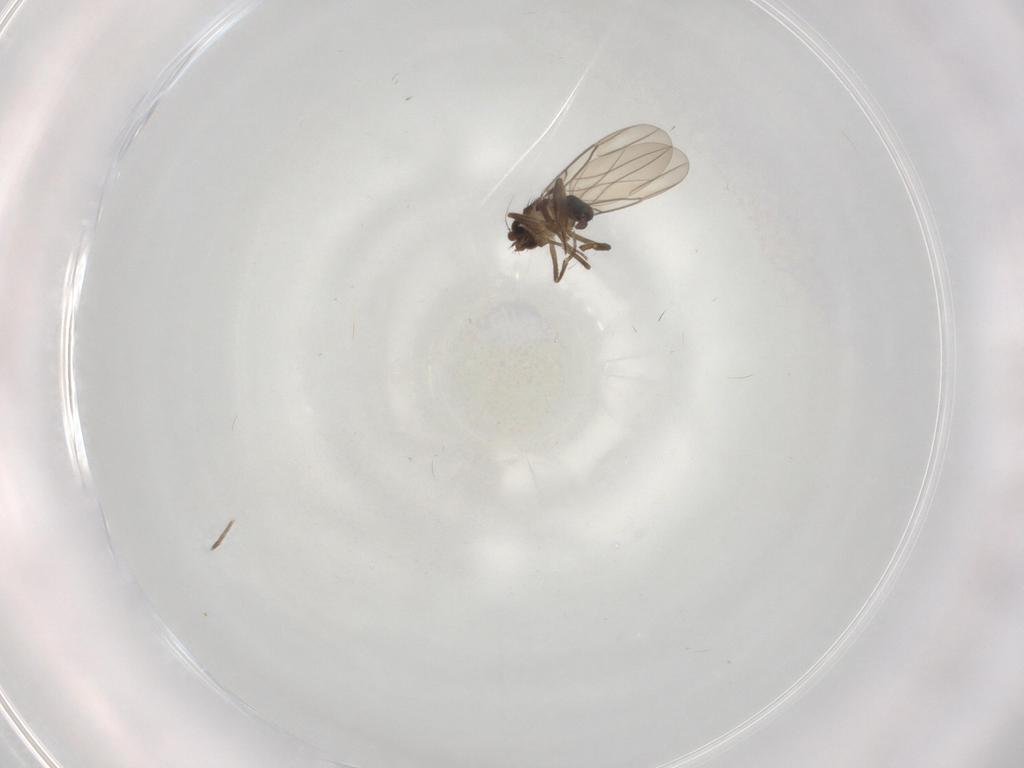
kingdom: Animalia
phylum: Arthropoda
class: Insecta
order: Diptera
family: Phoridae
